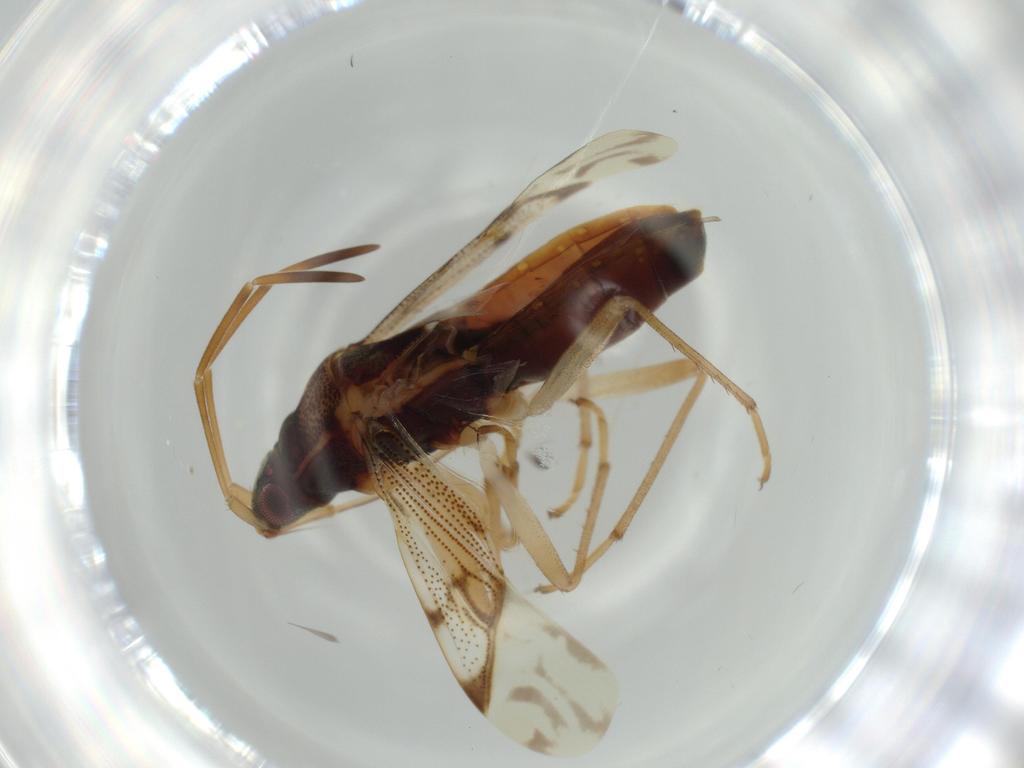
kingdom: Animalia
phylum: Arthropoda
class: Insecta
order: Hemiptera
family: Rhyparochromidae
